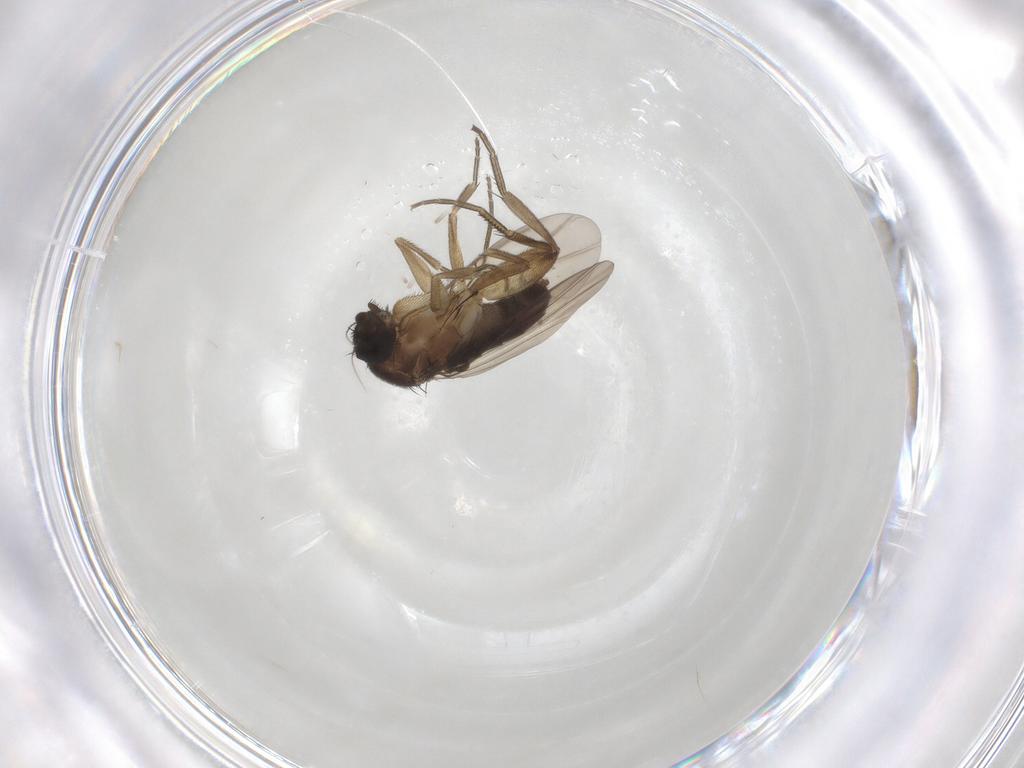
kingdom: Animalia
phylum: Arthropoda
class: Insecta
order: Diptera
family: Phoridae
